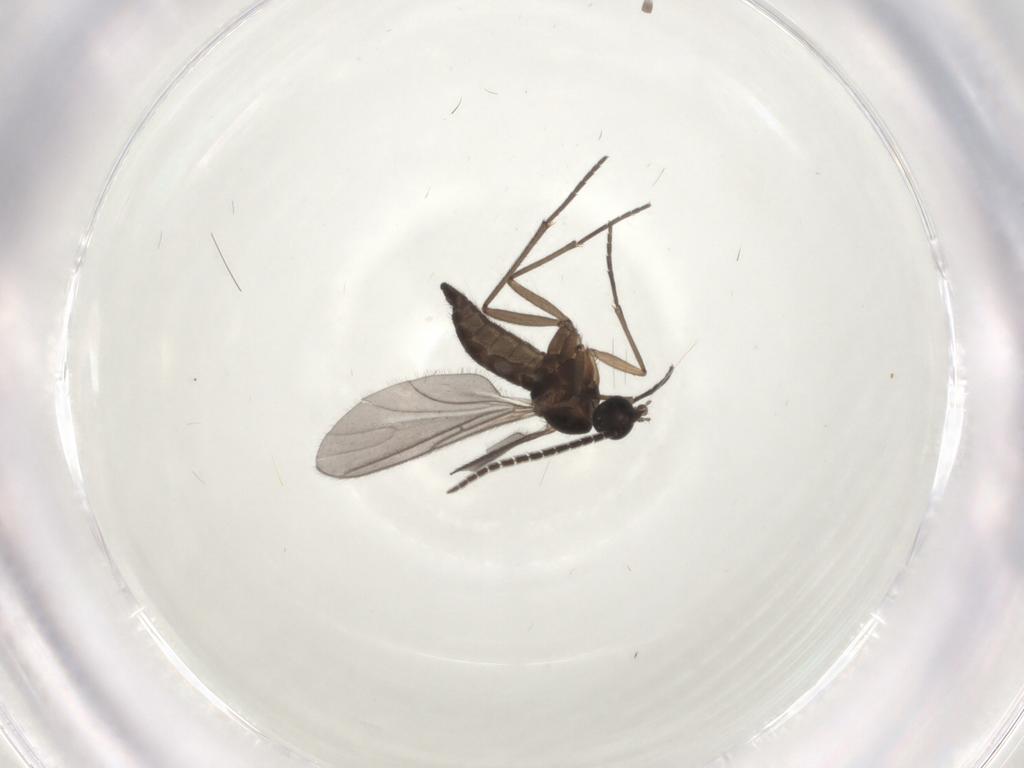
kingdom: Animalia
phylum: Arthropoda
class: Insecta
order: Diptera
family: Sciaridae
